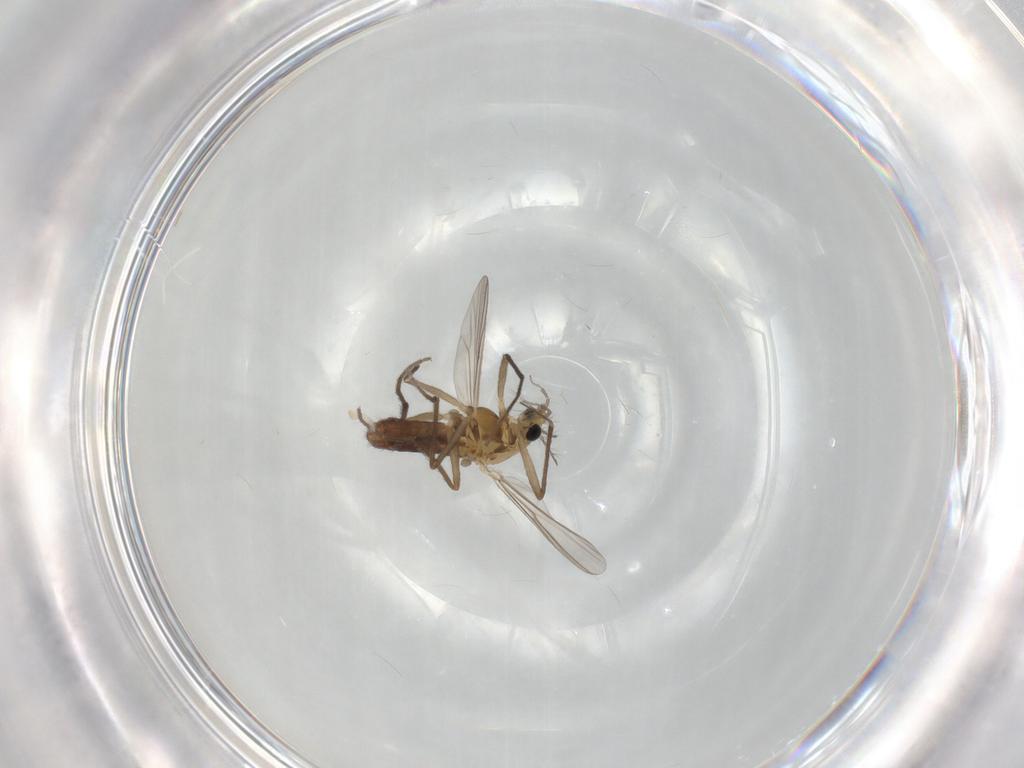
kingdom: Animalia
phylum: Arthropoda
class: Insecta
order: Diptera
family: Chironomidae
